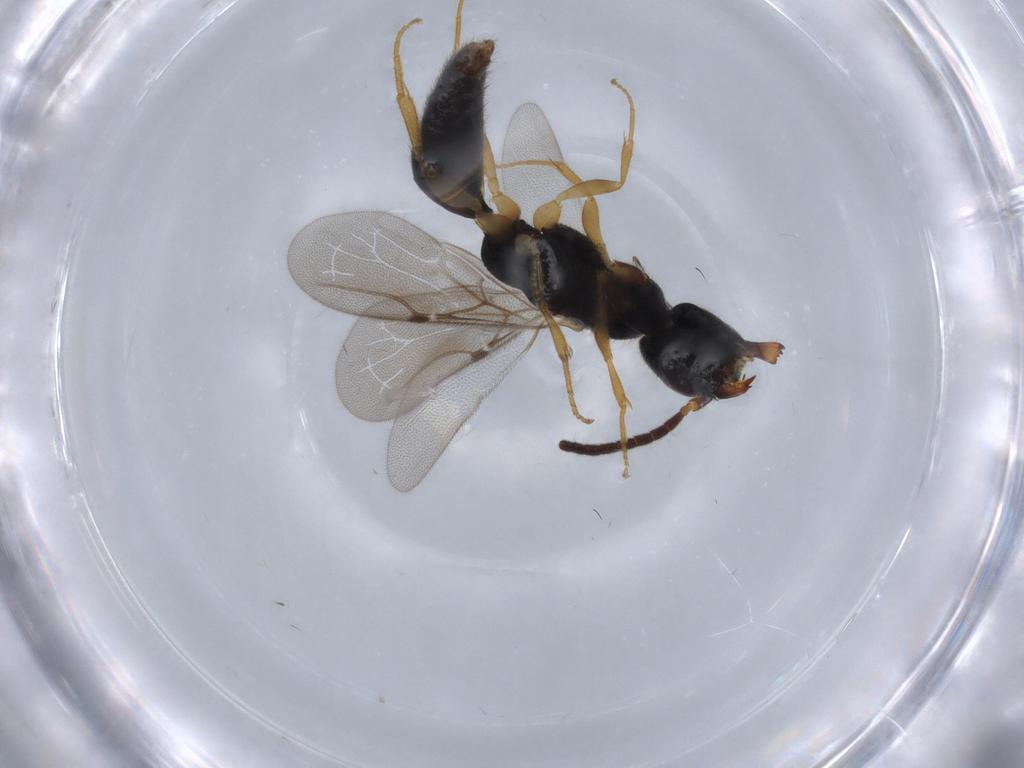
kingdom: Animalia
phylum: Arthropoda
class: Insecta
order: Hymenoptera
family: Bethylidae
